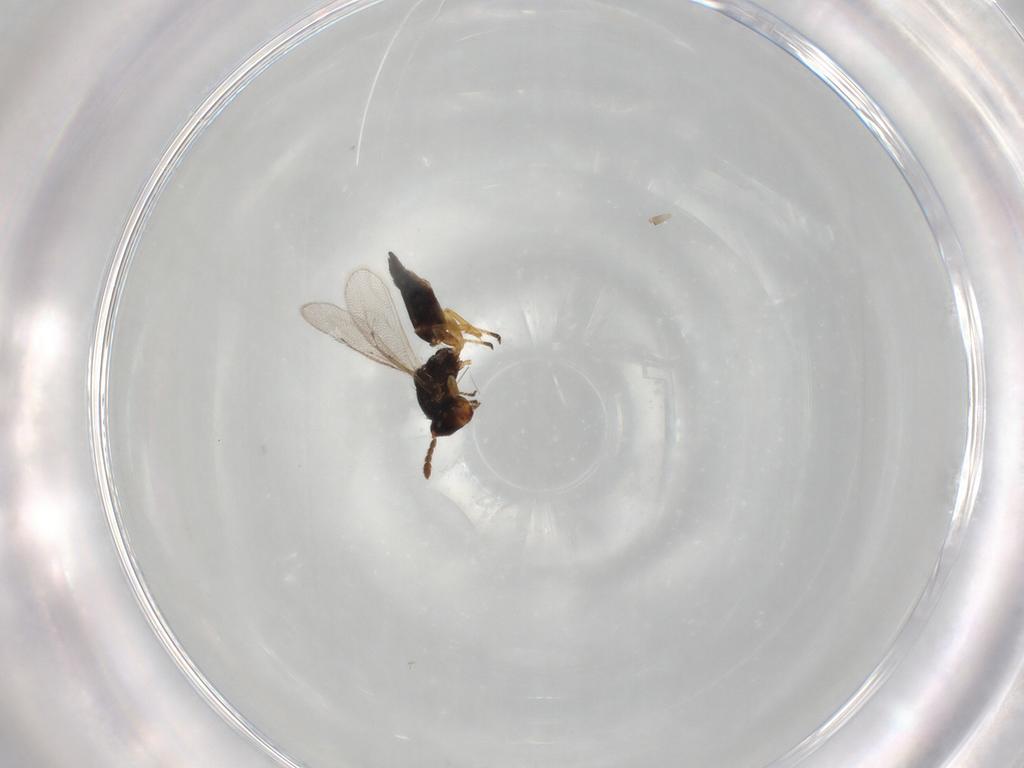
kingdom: Animalia
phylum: Arthropoda
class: Insecta
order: Hymenoptera
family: Eulophidae
